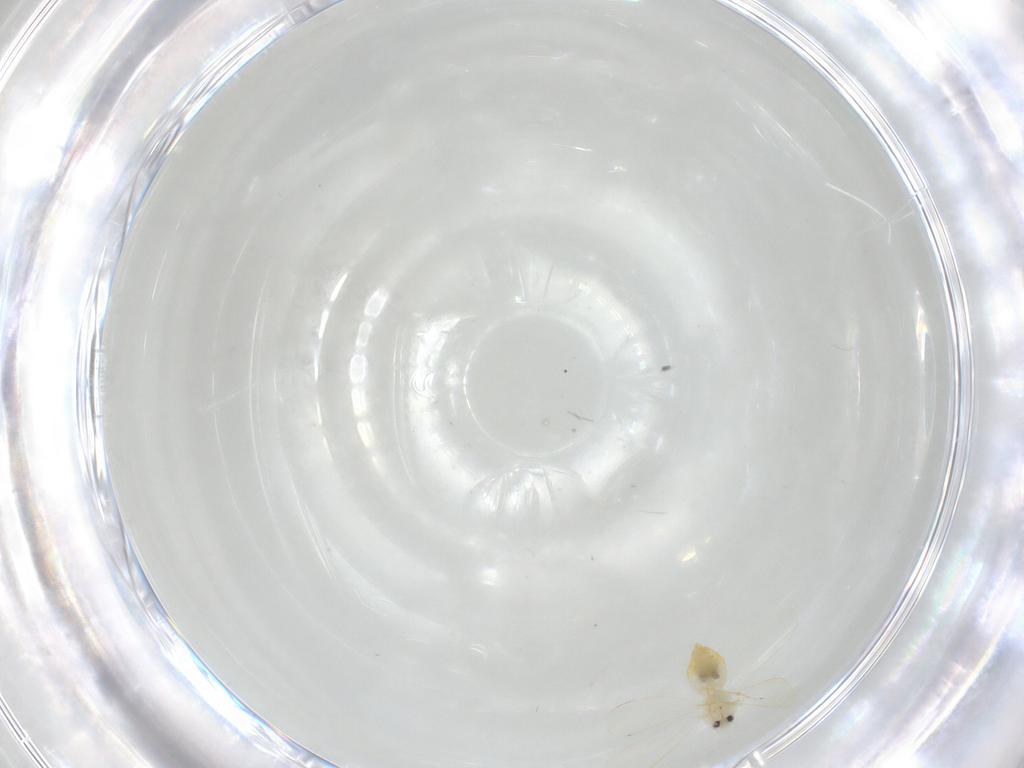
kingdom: Animalia
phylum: Arthropoda
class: Insecta
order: Hemiptera
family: Aleyrodidae
